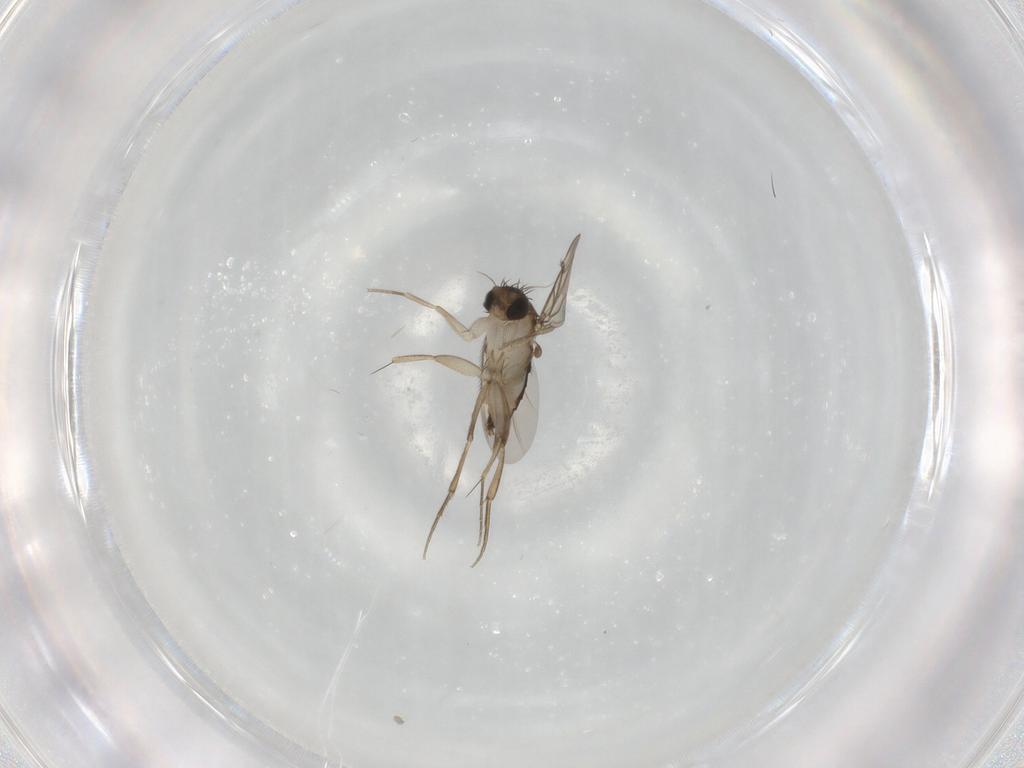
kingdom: Animalia
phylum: Arthropoda
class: Insecta
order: Diptera
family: Phoridae
